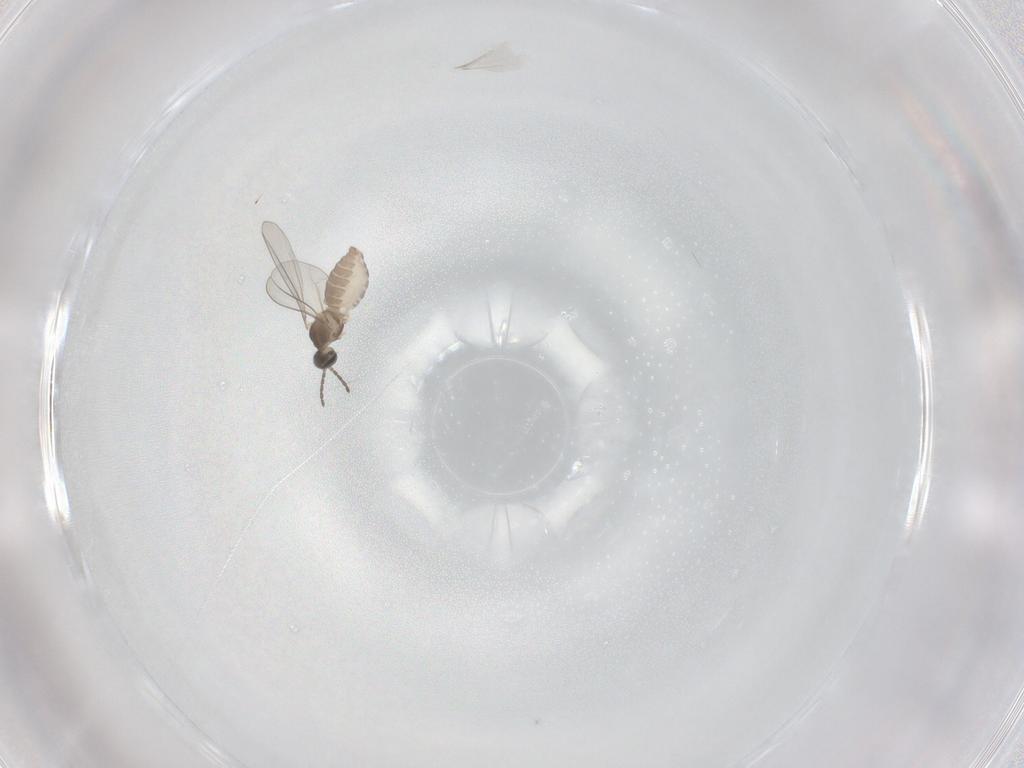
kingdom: Animalia
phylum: Arthropoda
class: Insecta
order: Diptera
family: Cecidomyiidae
